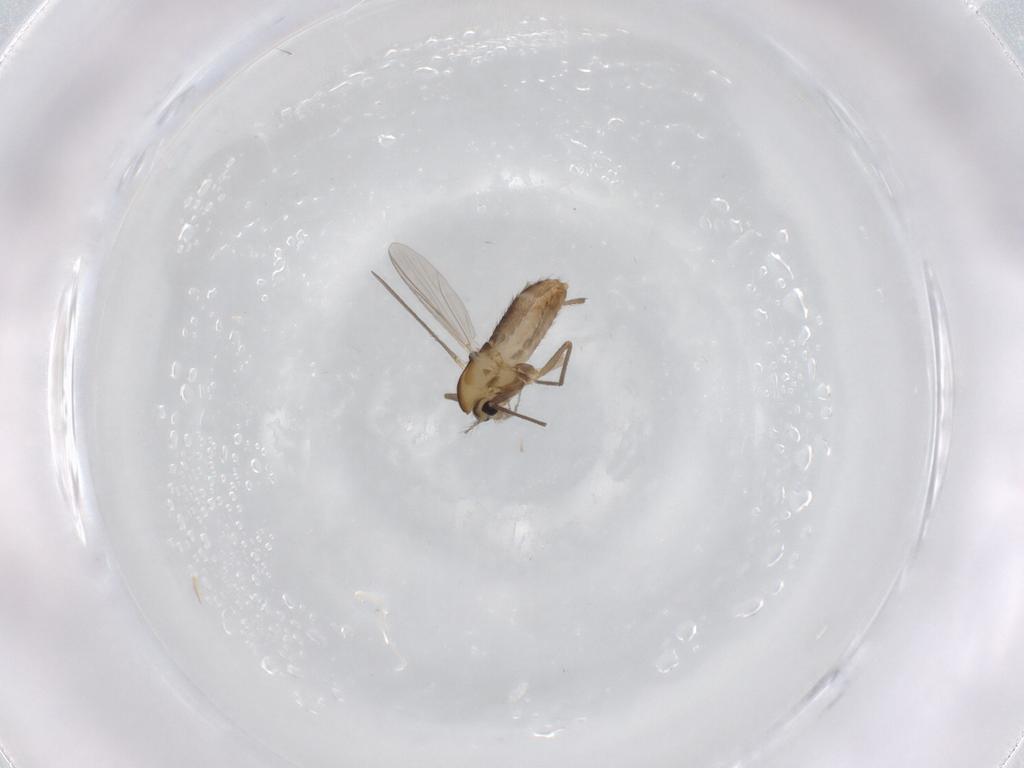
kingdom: Animalia
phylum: Arthropoda
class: Insecta
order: Diptera
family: Chironomidae
